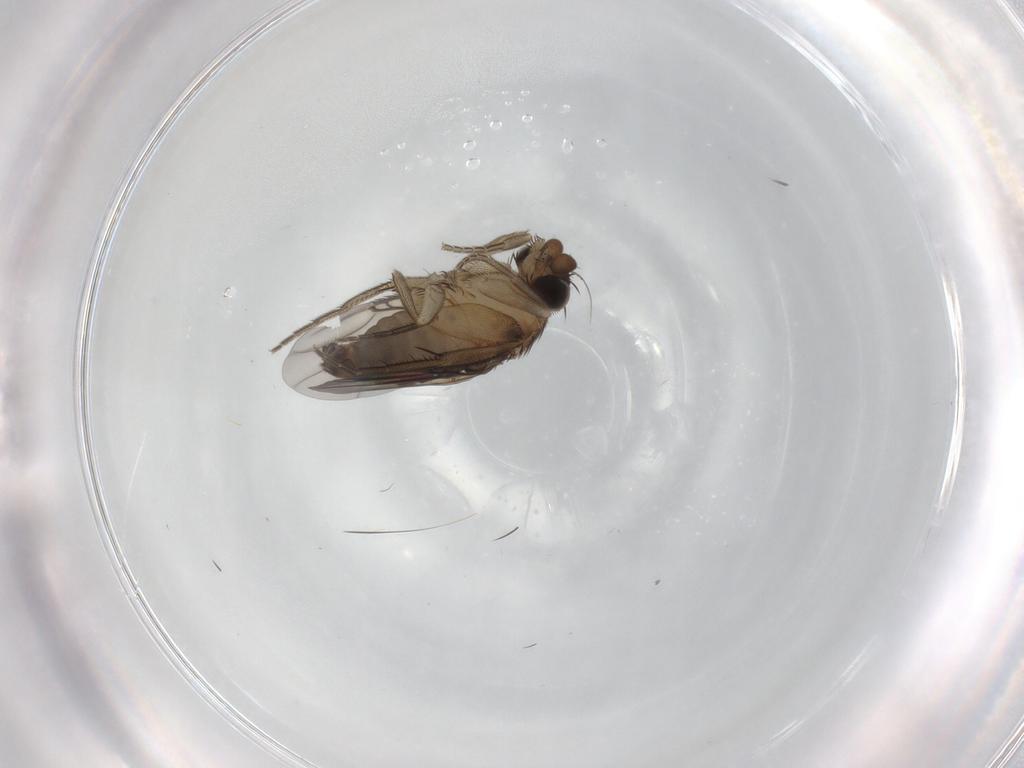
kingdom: Animalia
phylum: Arthropoda
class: Insecta
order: Diptera
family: Phoridae
